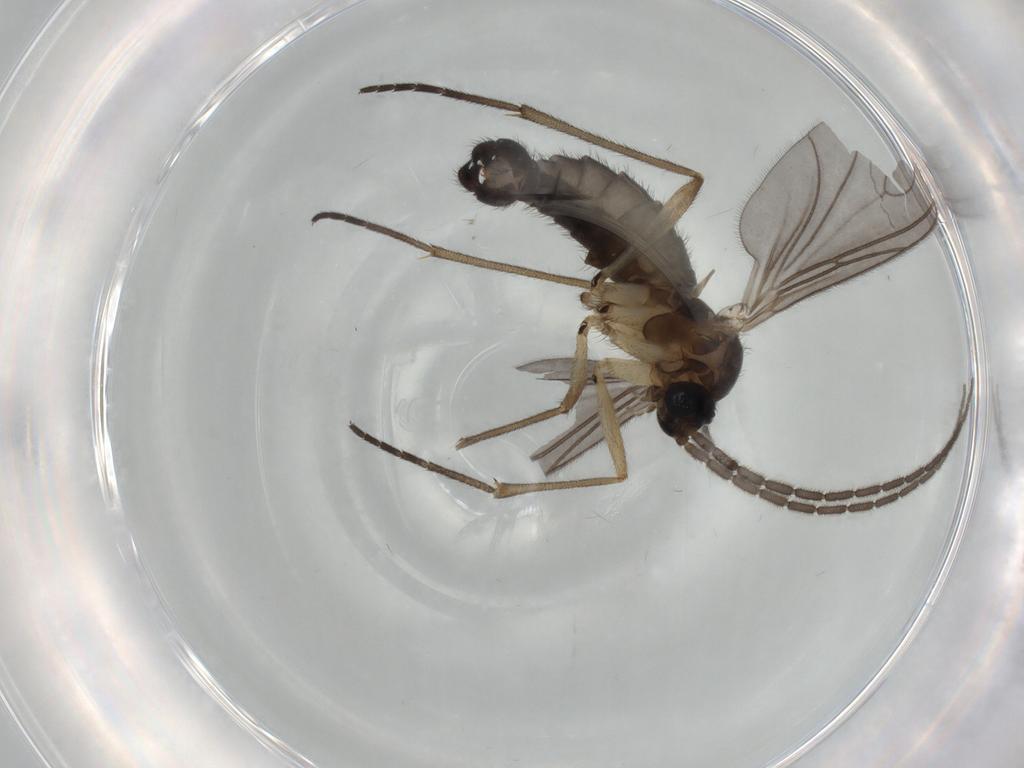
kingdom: Animalia
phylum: Arthropoda
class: Insecta
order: Diptera
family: Sciaridae
